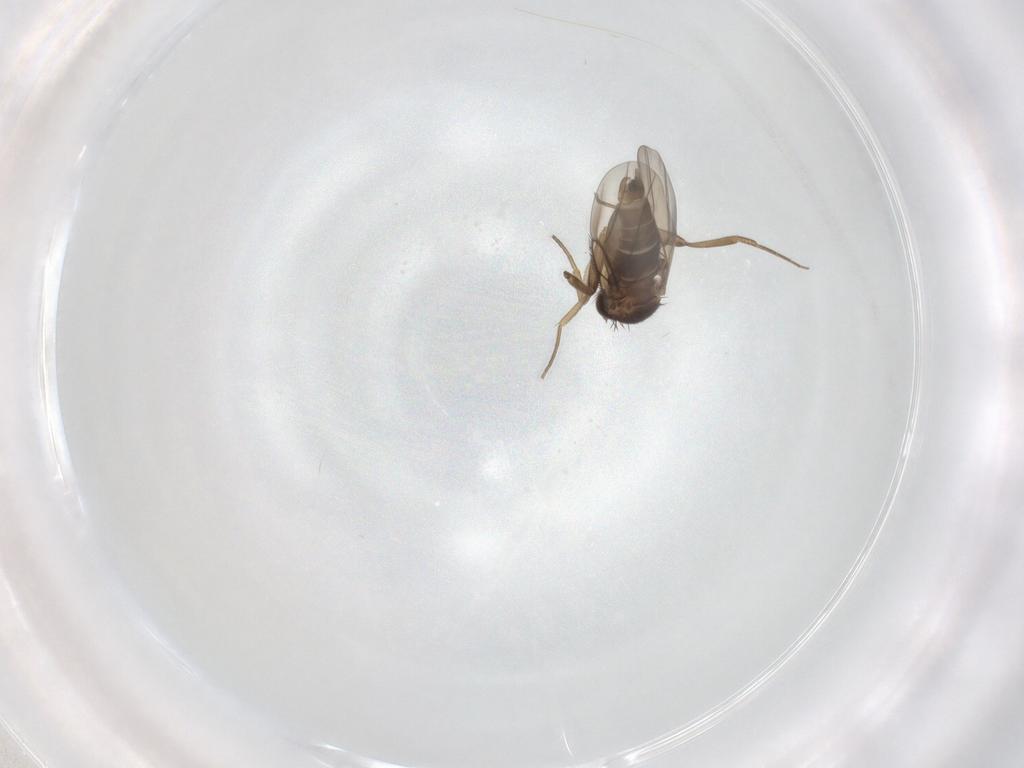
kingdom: Animalia
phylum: Arthropoda
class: Insecta
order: Diptera
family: Phoridae
